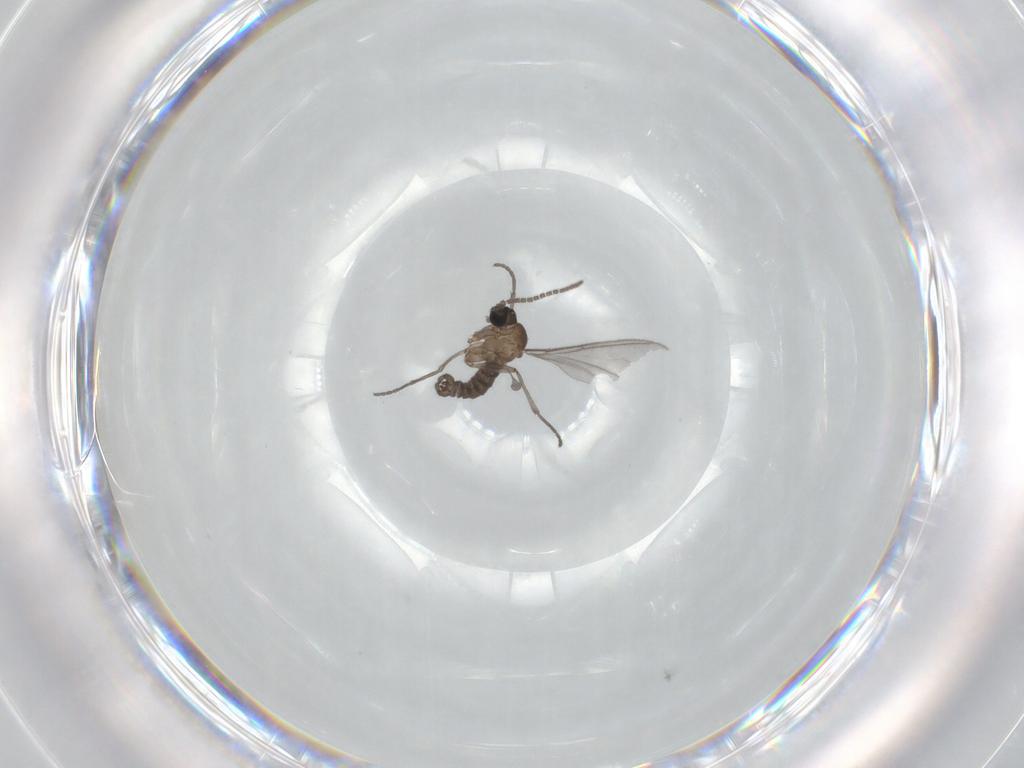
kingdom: Animalia
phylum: Arthropoda
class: Insecta
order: Diptera
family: Sciaridae
